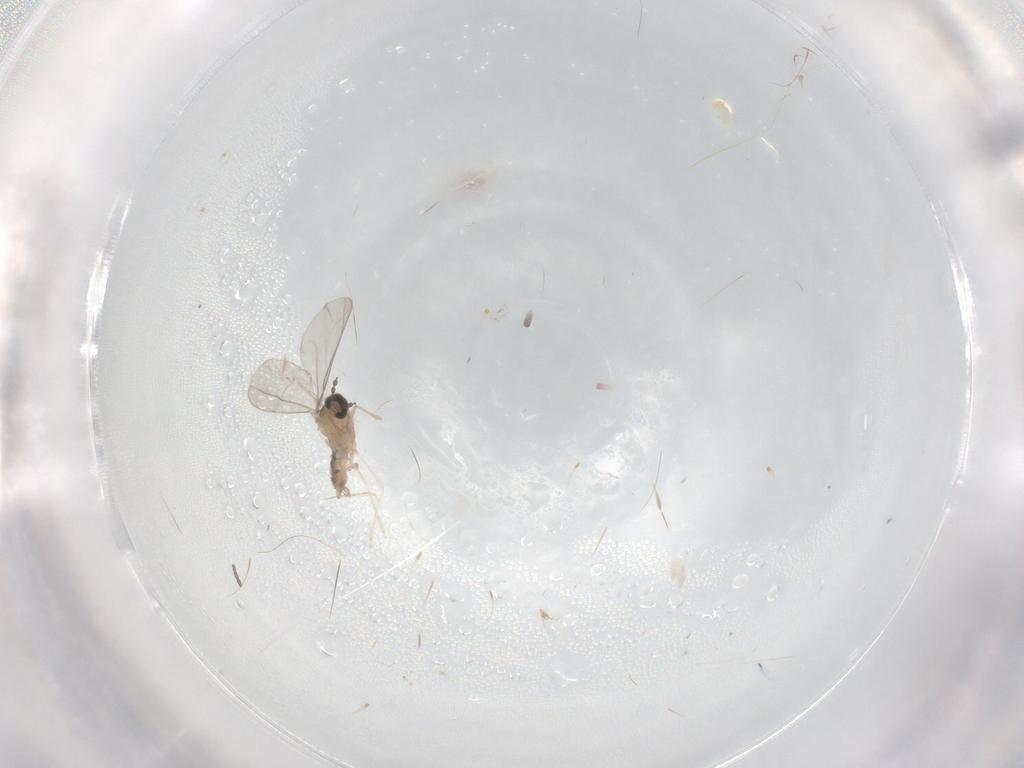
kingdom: Animalia
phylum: Arthropoda
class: Insecta
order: Diptera
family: Cecidomyiidae
